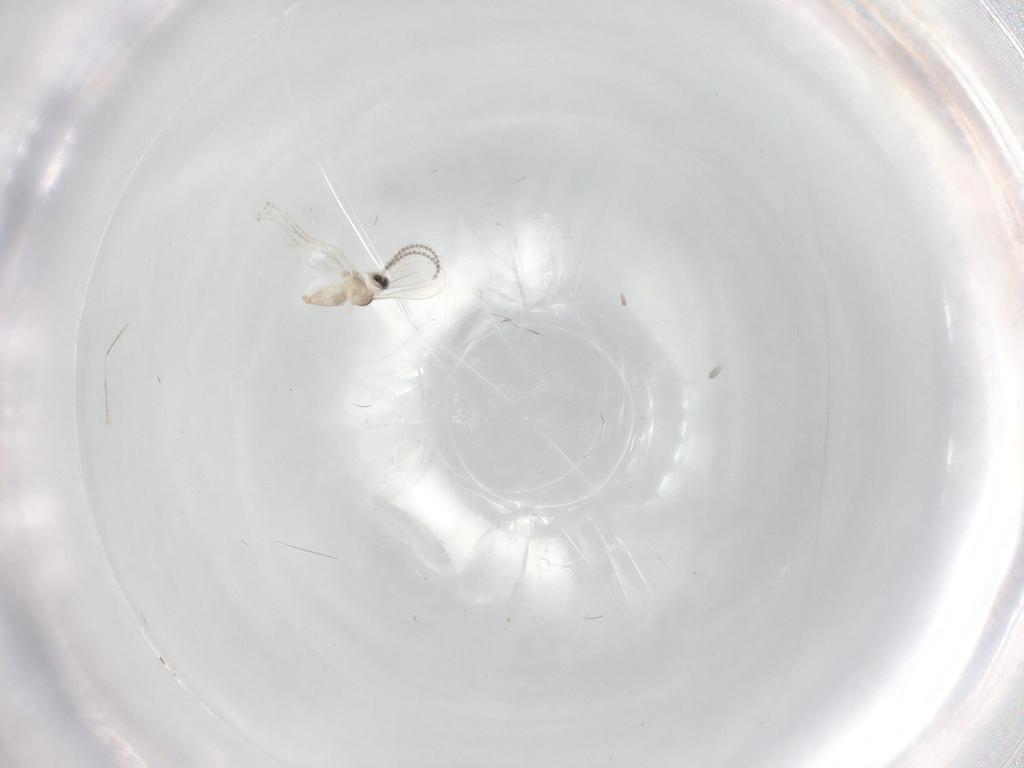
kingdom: Animalia
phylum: Arthropoda
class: Insecta
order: Diptera
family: Cecidomyiidae
